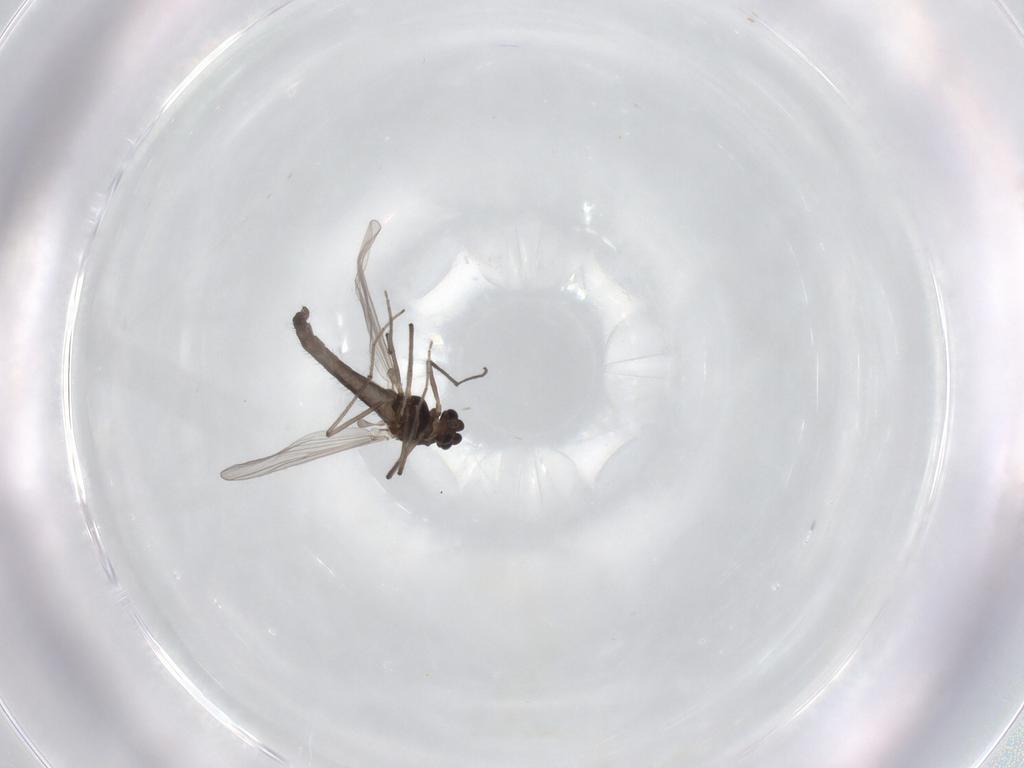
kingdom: Animalia
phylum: Arthropoda
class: Insecta
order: Diptera
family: Chironomidae
